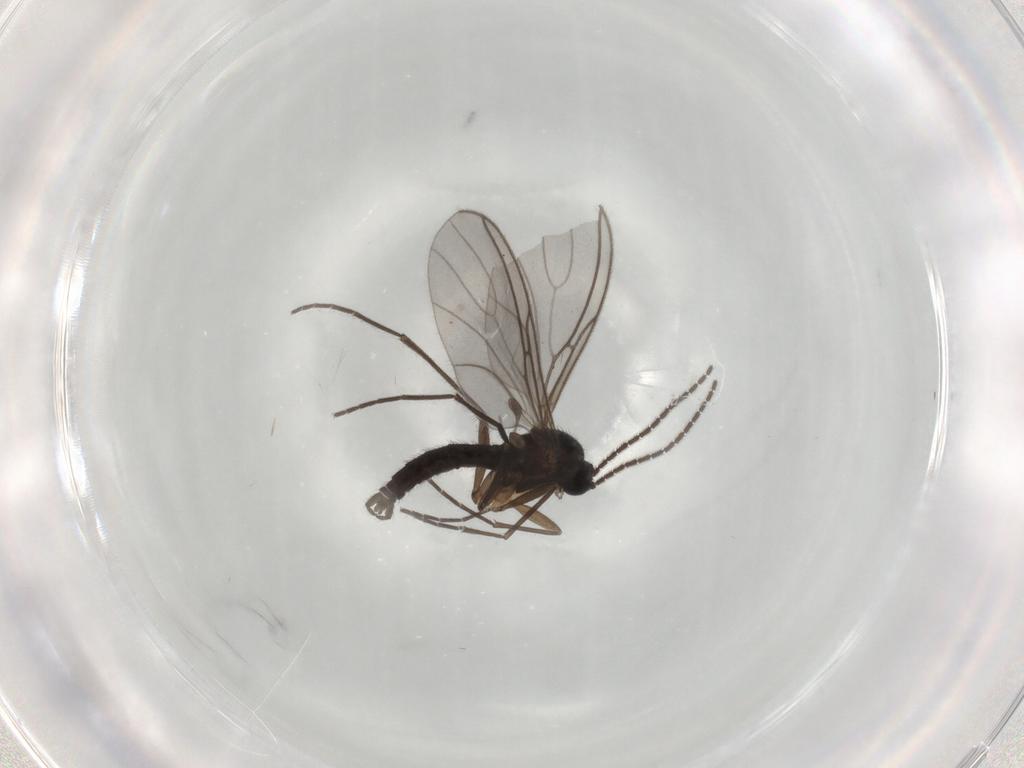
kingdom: Animalia
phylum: Arthropoda
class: Insecta
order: Diptera
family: Sciaridae
